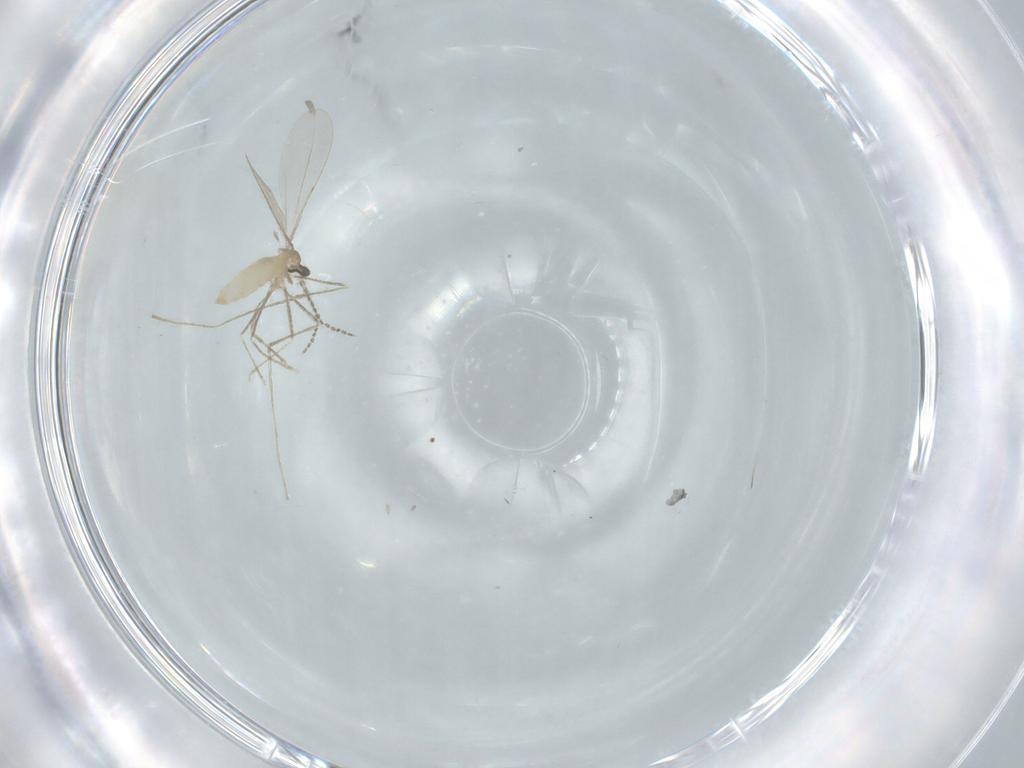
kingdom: Animalia
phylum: Arthropoda
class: Insecta
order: Diptera
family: Cecidomyiidae
